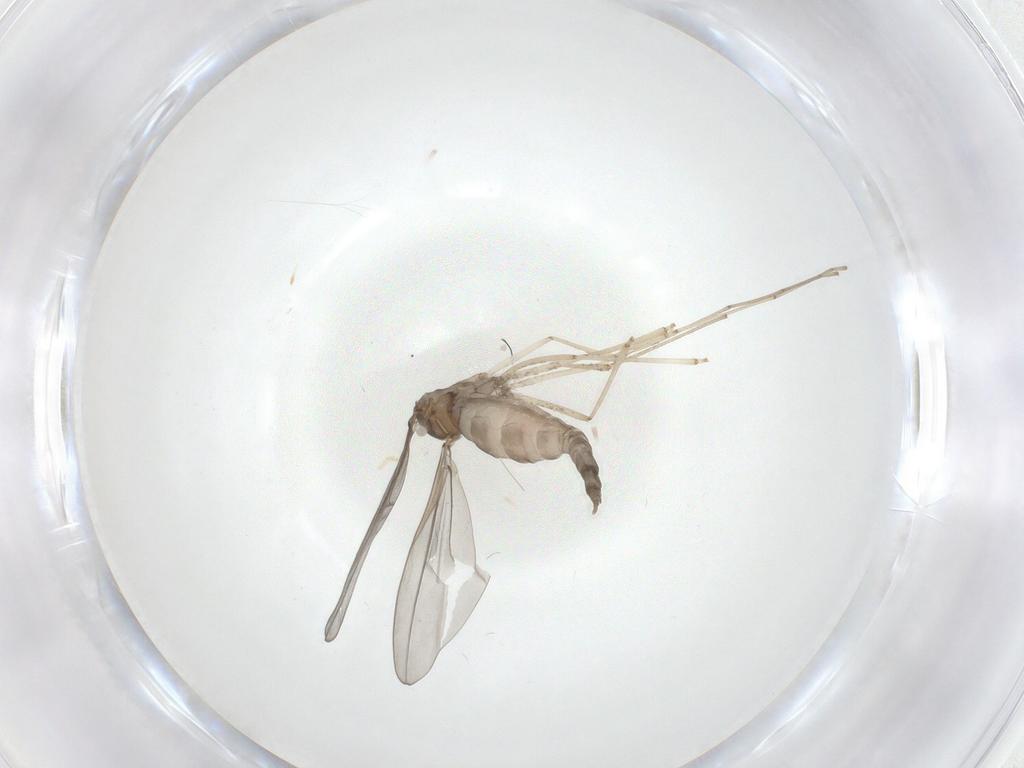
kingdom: Animalia
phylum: Arthropoda
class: Insecta
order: Diptera
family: Cecidomyiidae
